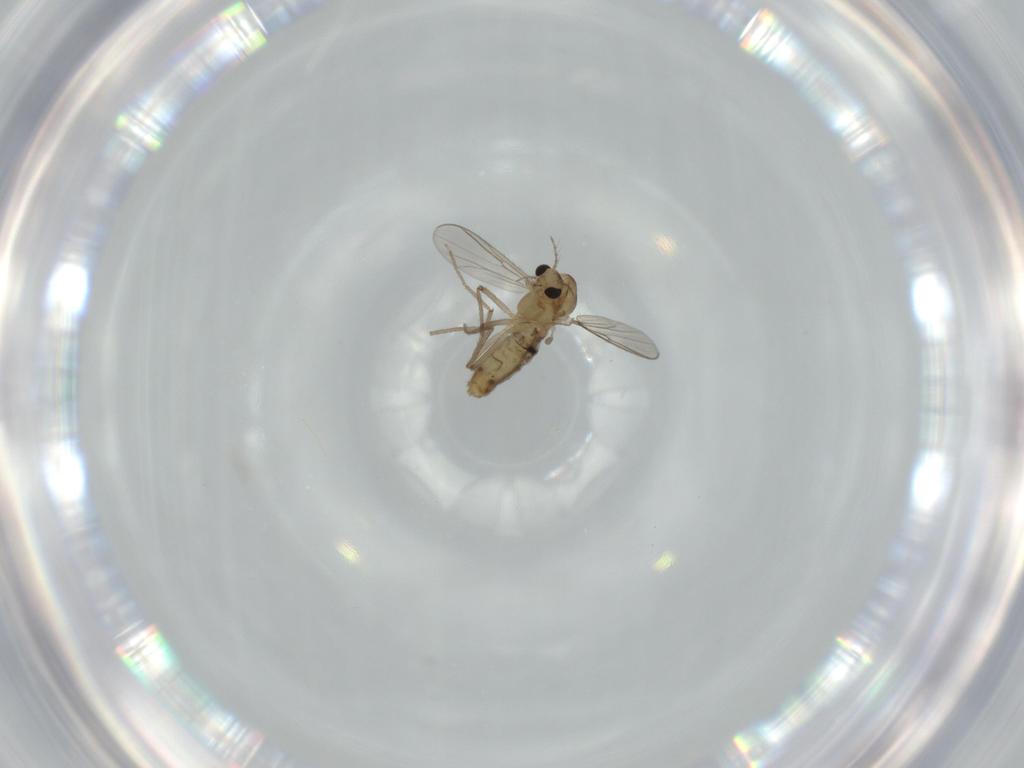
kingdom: Animalia
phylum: Arthropoda
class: Insecta
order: Diptera
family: Chironomidae
